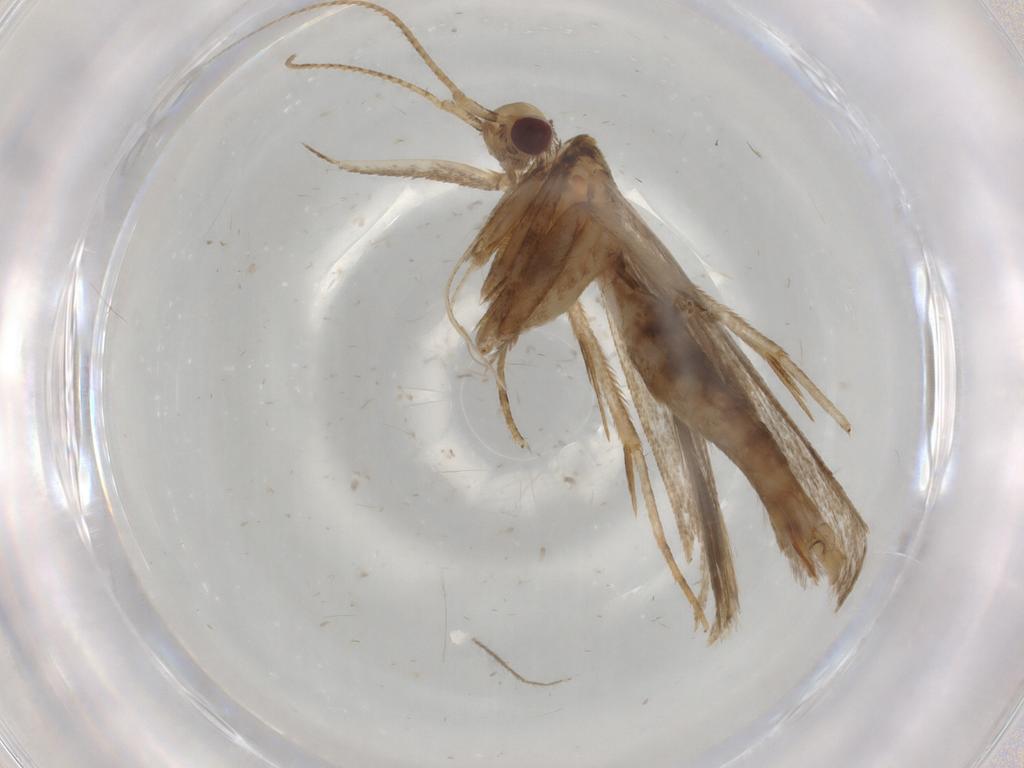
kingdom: Animalia
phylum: Arthropoda
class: Insecta
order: Lepidoptera
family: Gelechiidae
